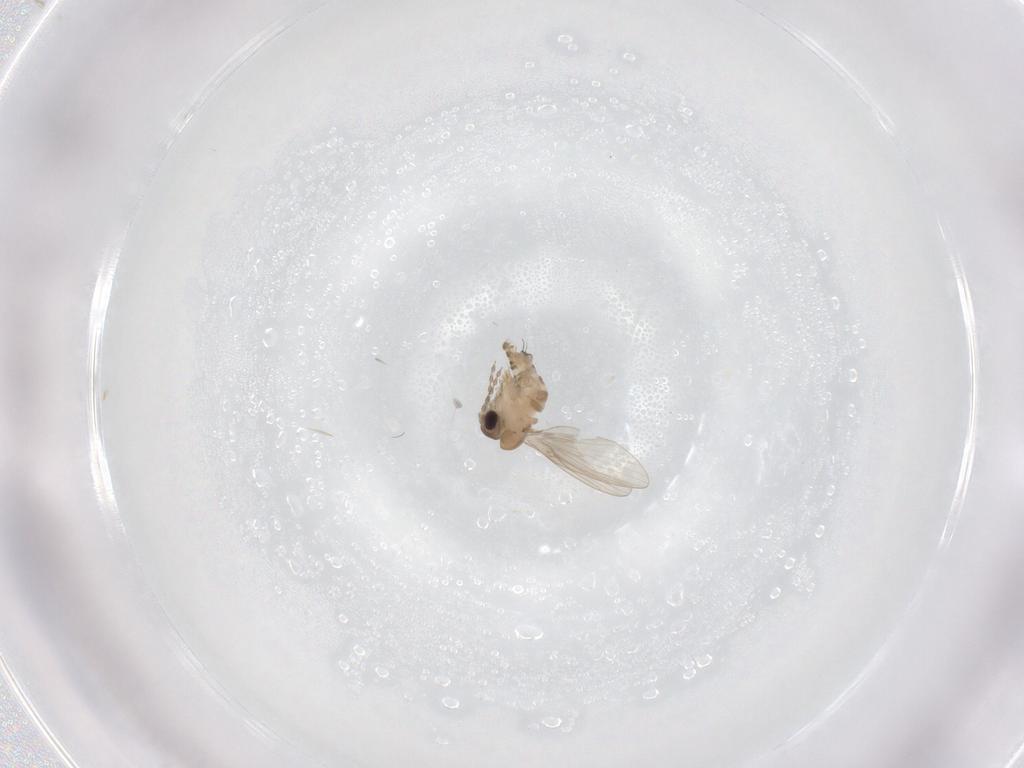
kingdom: Animalia
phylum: Arthropoda
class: Insecta
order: Diptera
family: Psychodidae
